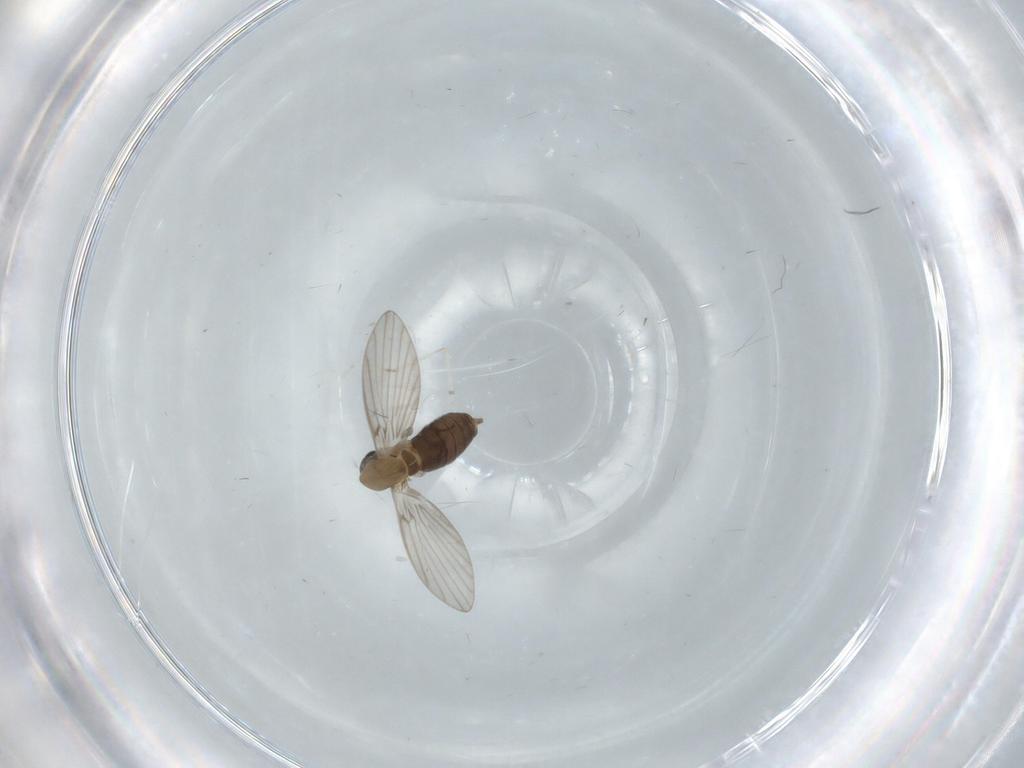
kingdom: Animalia
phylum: Arthropoda
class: Insecta
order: Diptera
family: Psychodidae
